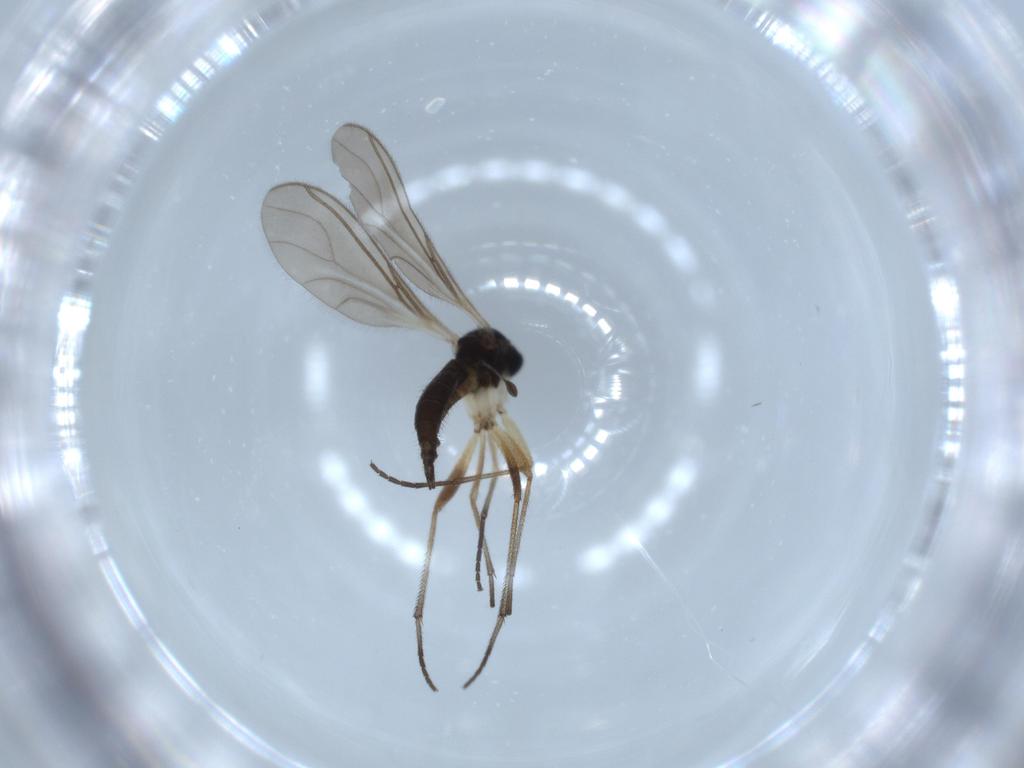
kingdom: Animalia
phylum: Arthropoda
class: Insecta
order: Diptera
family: Sciaridae
